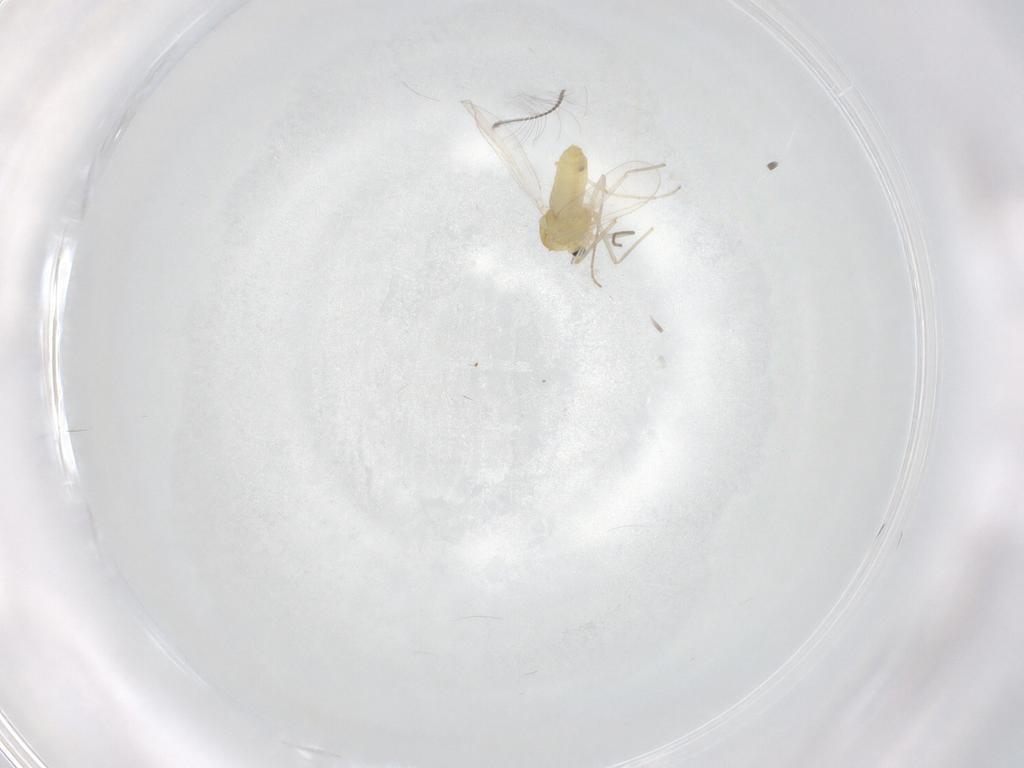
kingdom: Animalia
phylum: Arthropoda
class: Insecta
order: Diptera
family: Chironomidae
